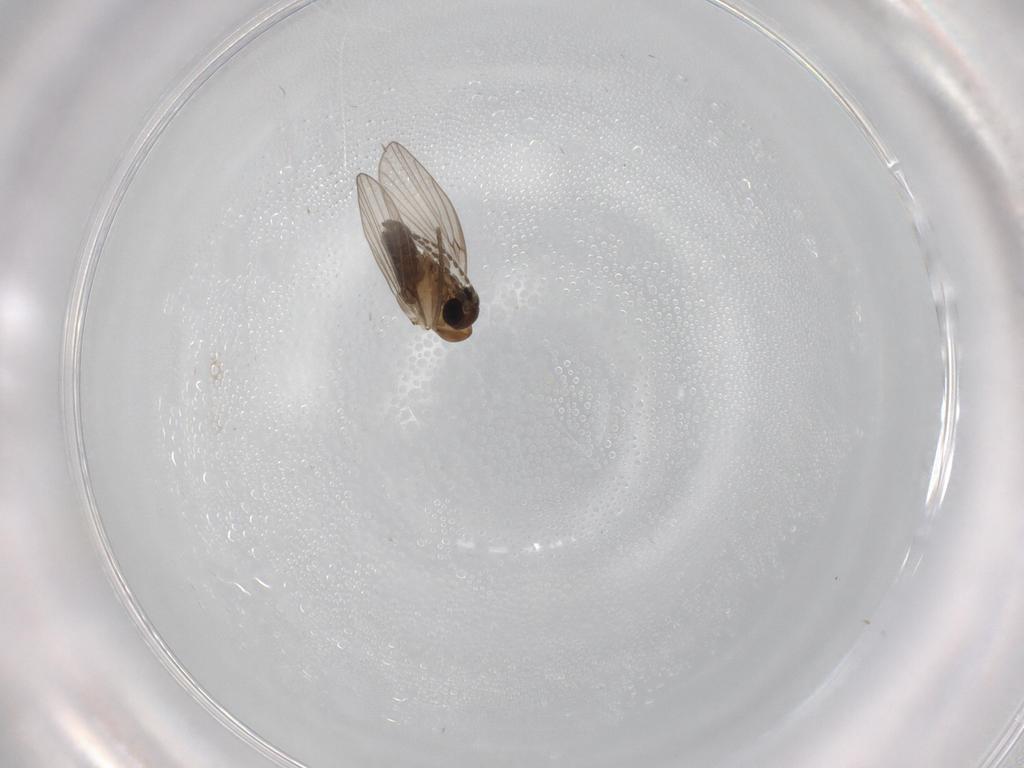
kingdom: Animalia
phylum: Arthropoda
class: Insecta
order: Diptera
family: Psychodidae
